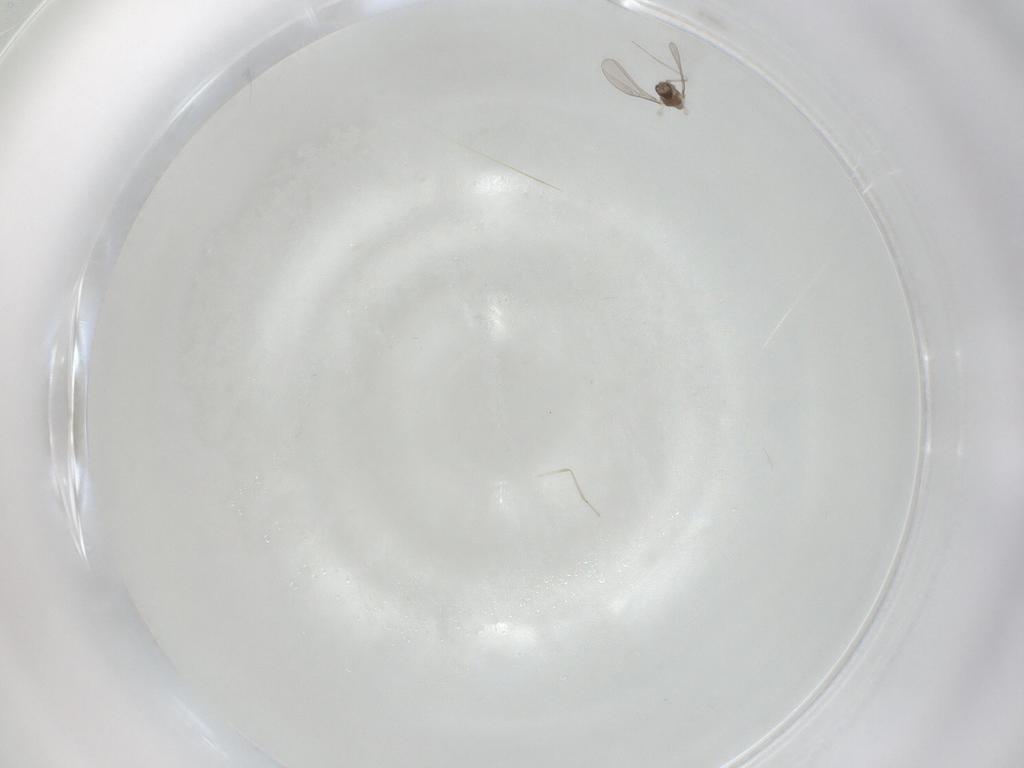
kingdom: Animalia
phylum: Arthropoda
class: Insecta
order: Diptera
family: Cecidomyiidae
